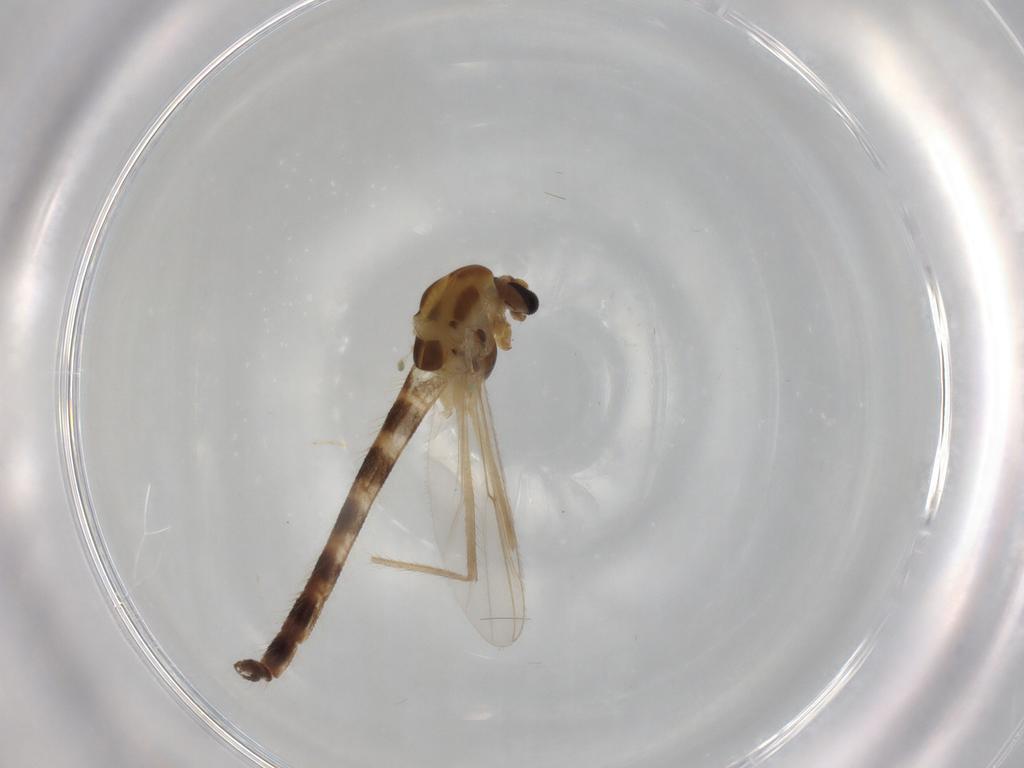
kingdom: Animalia
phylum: Arthropoda
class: Insecta
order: Diptera
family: Chironomidae
